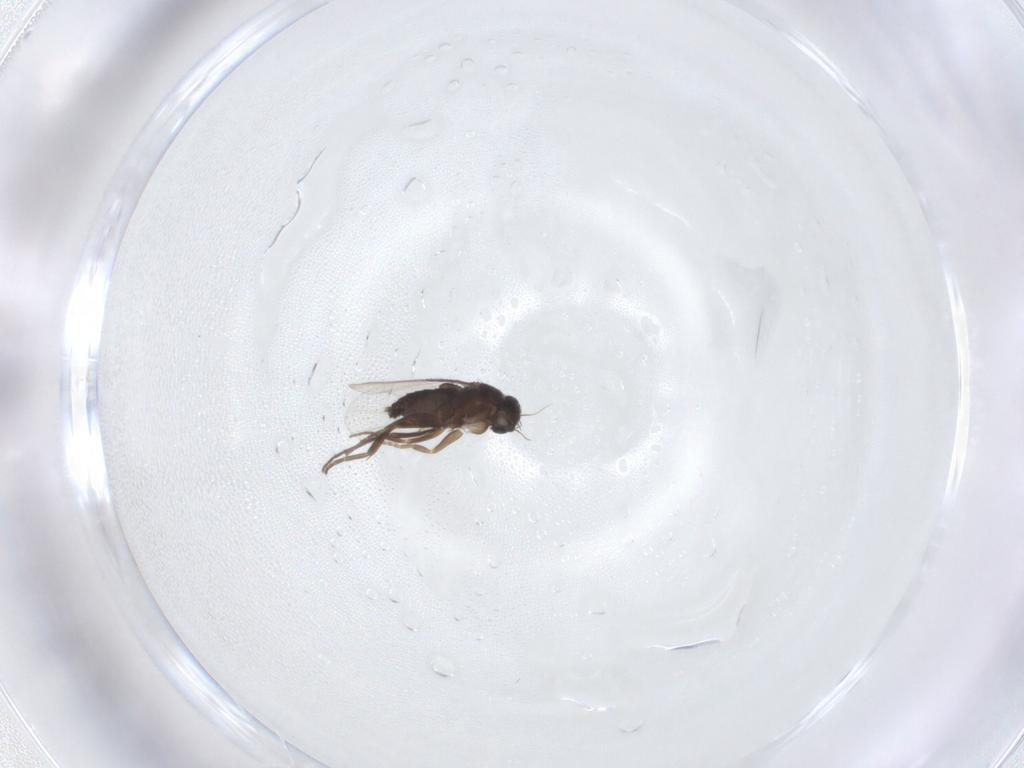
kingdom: Animalia
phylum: Arthropoda
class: Insecta
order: Diptera
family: Phoridae
